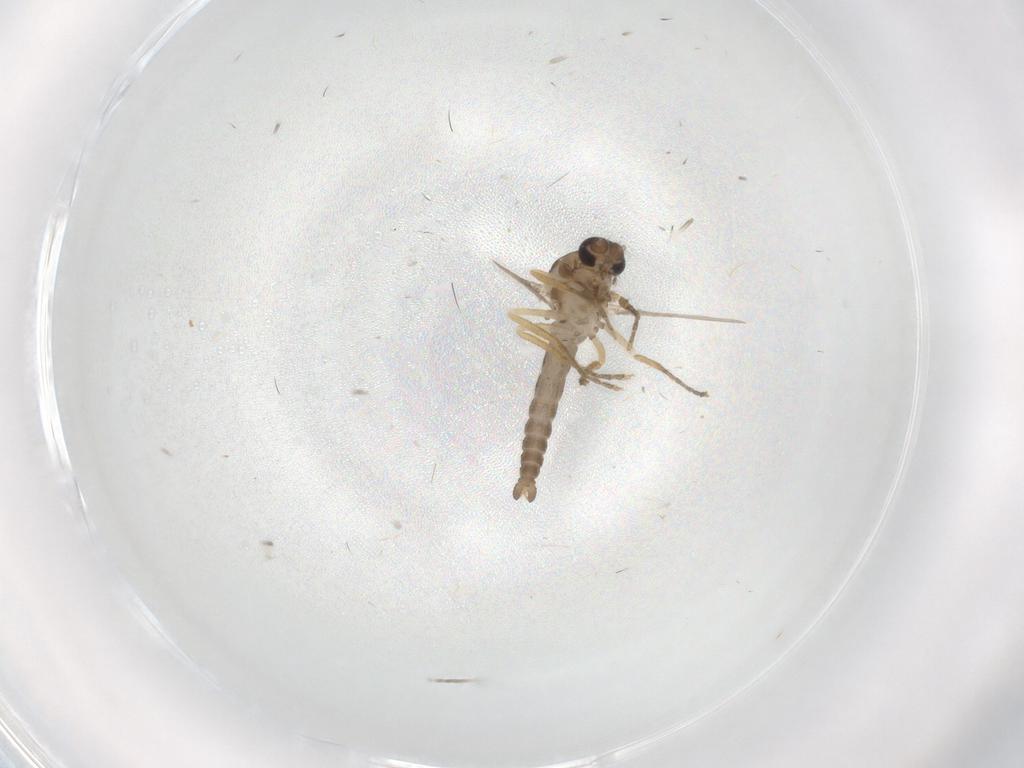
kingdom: Animalia
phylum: Arthropoda
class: Insecta
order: Diptera
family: Ceratopogonidae
